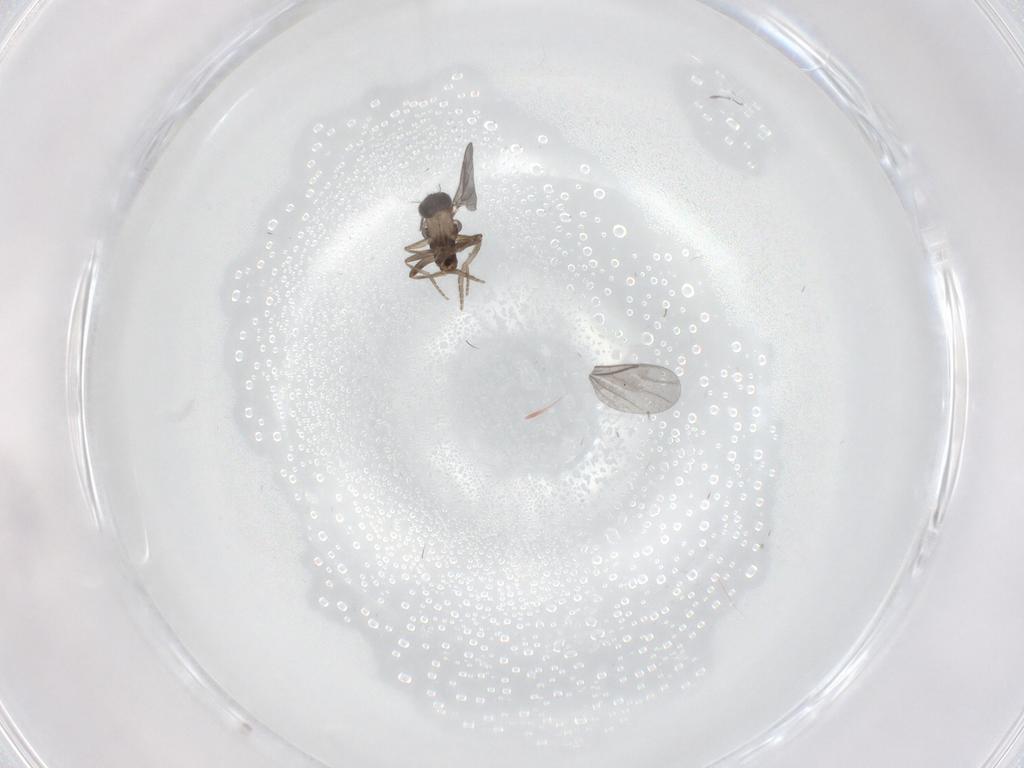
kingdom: Animalia
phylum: Arthropoda
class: Insecta
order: Diptera
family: Limoniidae
